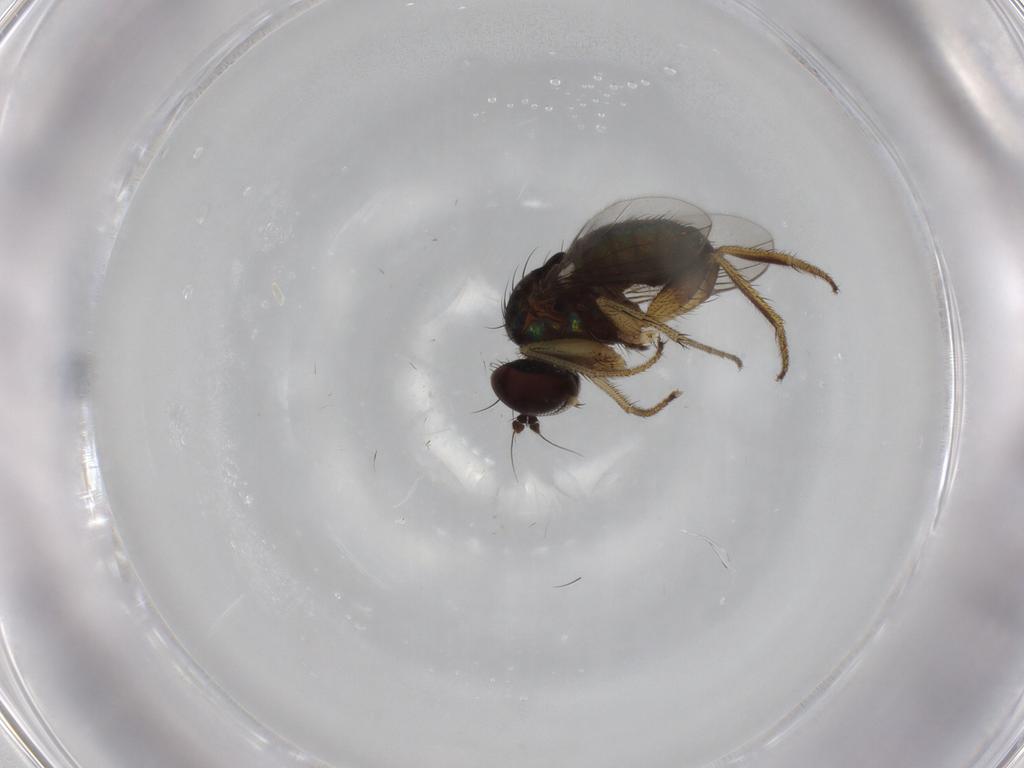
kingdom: Animalia
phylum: Arthropoda
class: Insecta
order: Diptera
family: Dolichopodidae
